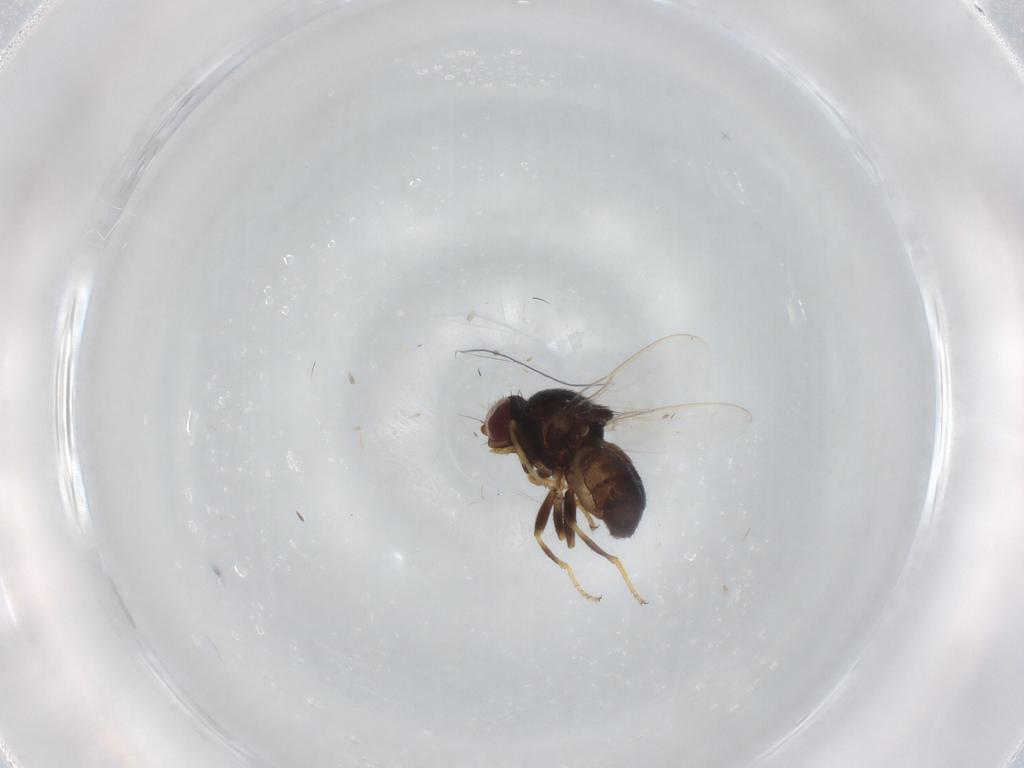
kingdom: Animalia
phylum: Arthropoda
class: Insecta
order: Diptera
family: Chloropidae
